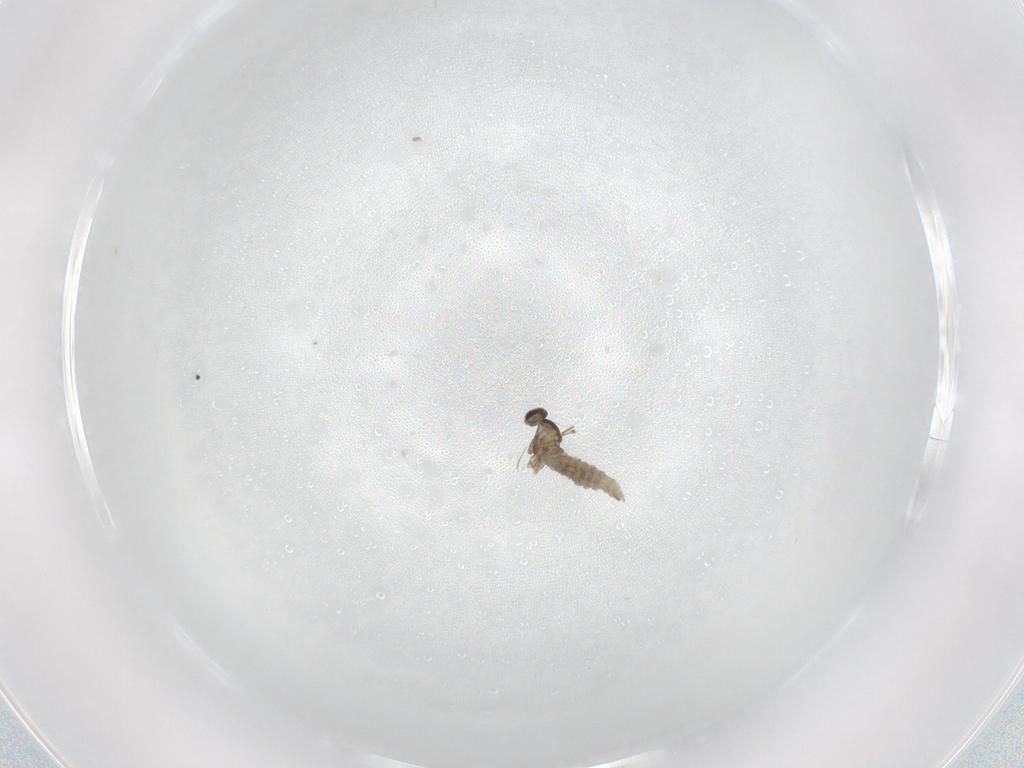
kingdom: Animalia
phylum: Arthropoda
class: Insecta
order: Diptera
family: Cecidomyiidae
